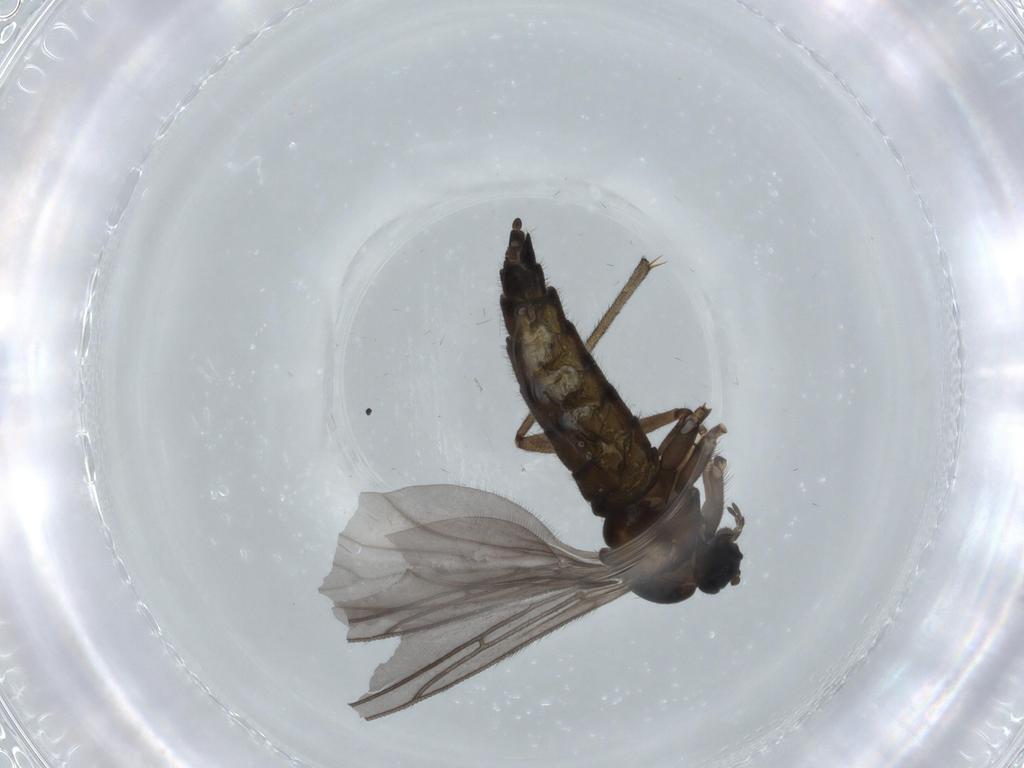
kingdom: Animalia
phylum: Arthropoda
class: Insecta
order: Diptera
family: Sciaridae
